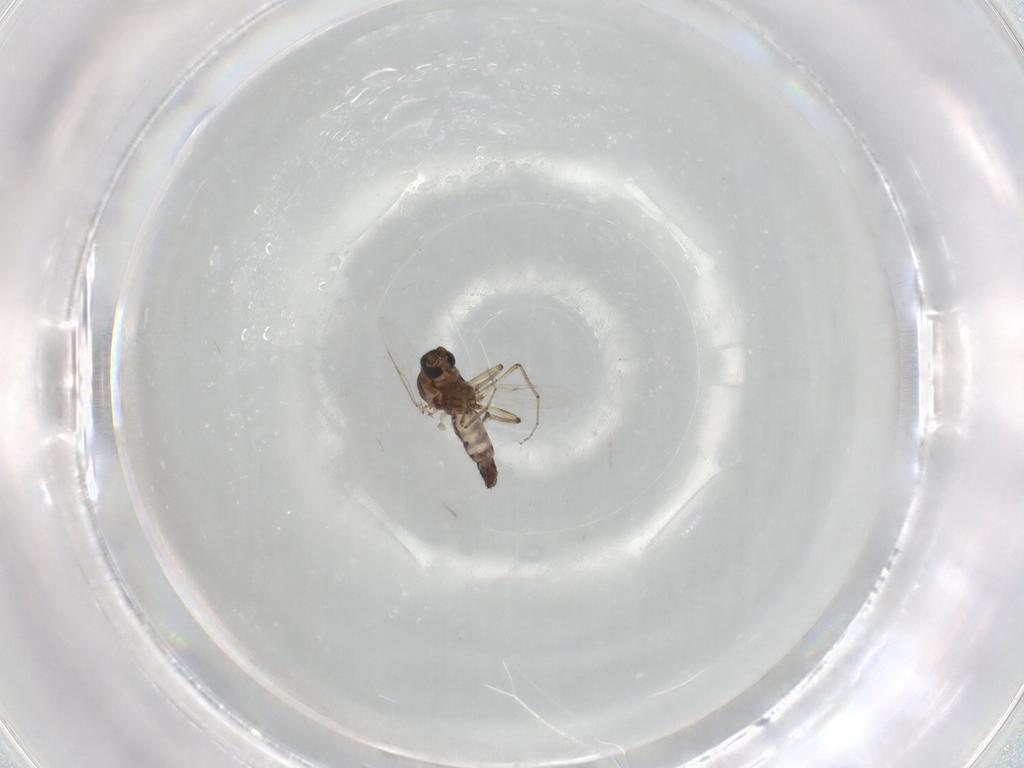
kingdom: Animalia
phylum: Arthropoda
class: Insecta
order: Diptera
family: Ceratopogonidae
